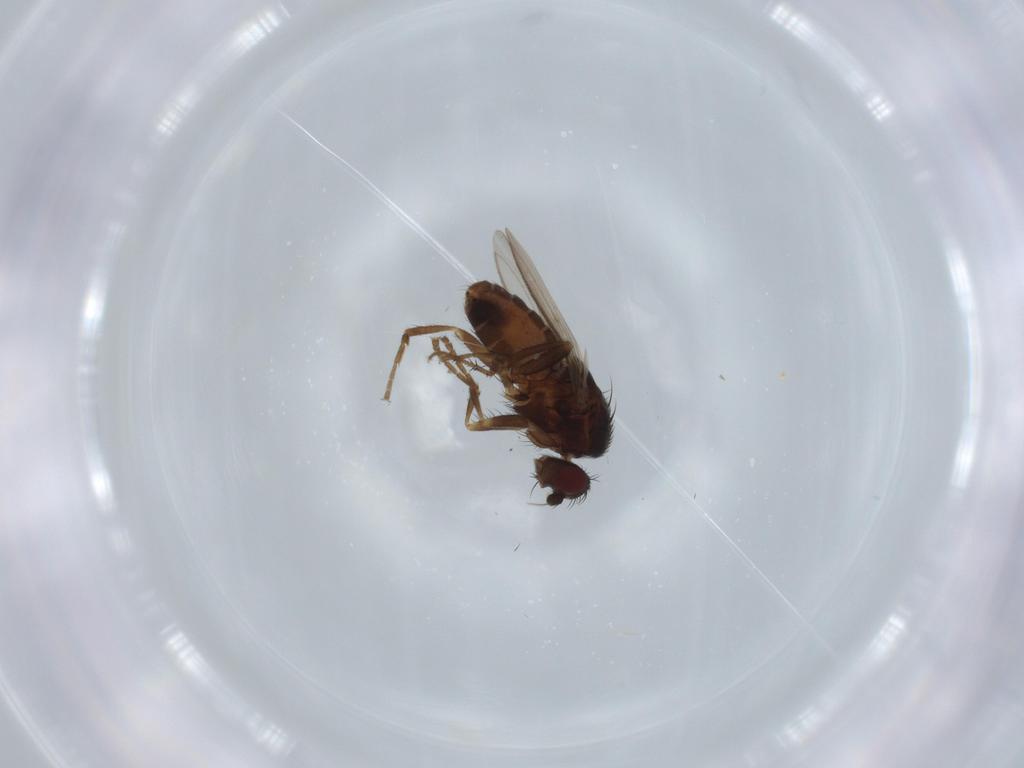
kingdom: Animalia
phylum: Arthropoda
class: Insecta
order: Diptera
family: Sphaeroceridae
